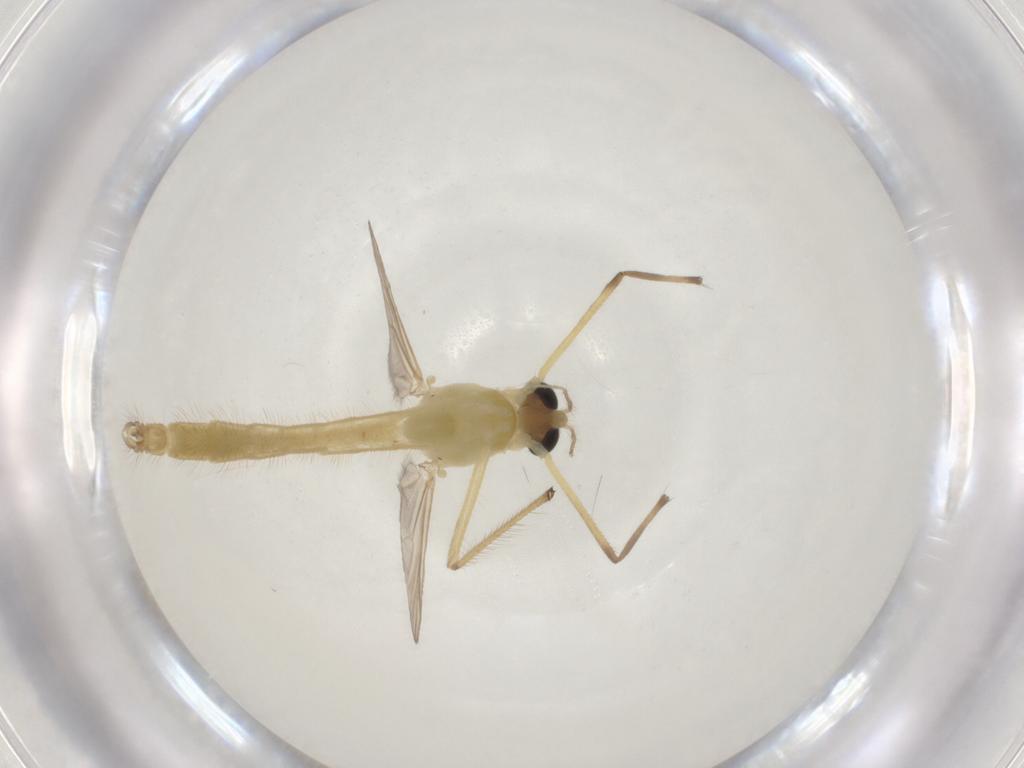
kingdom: Animalia
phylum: Arthropoda
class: Insecta
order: Diptera
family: Chironomidae
